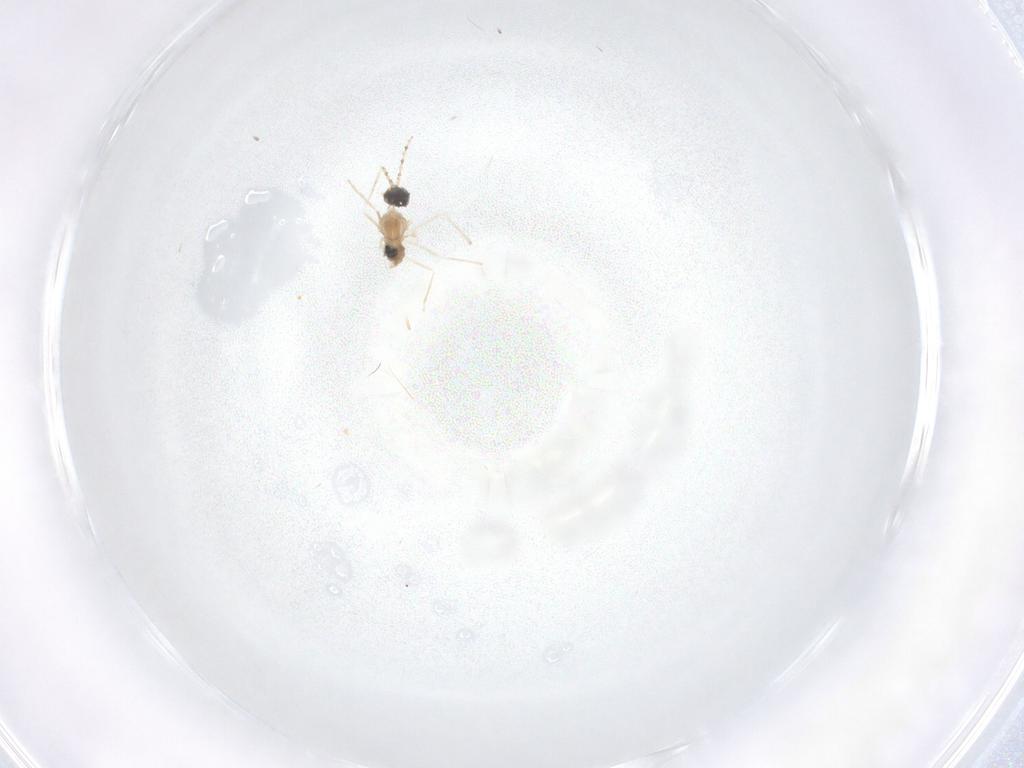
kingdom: Animalia
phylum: Arthropoda
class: Insecta
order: Diptera
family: Cecidomyiidae
